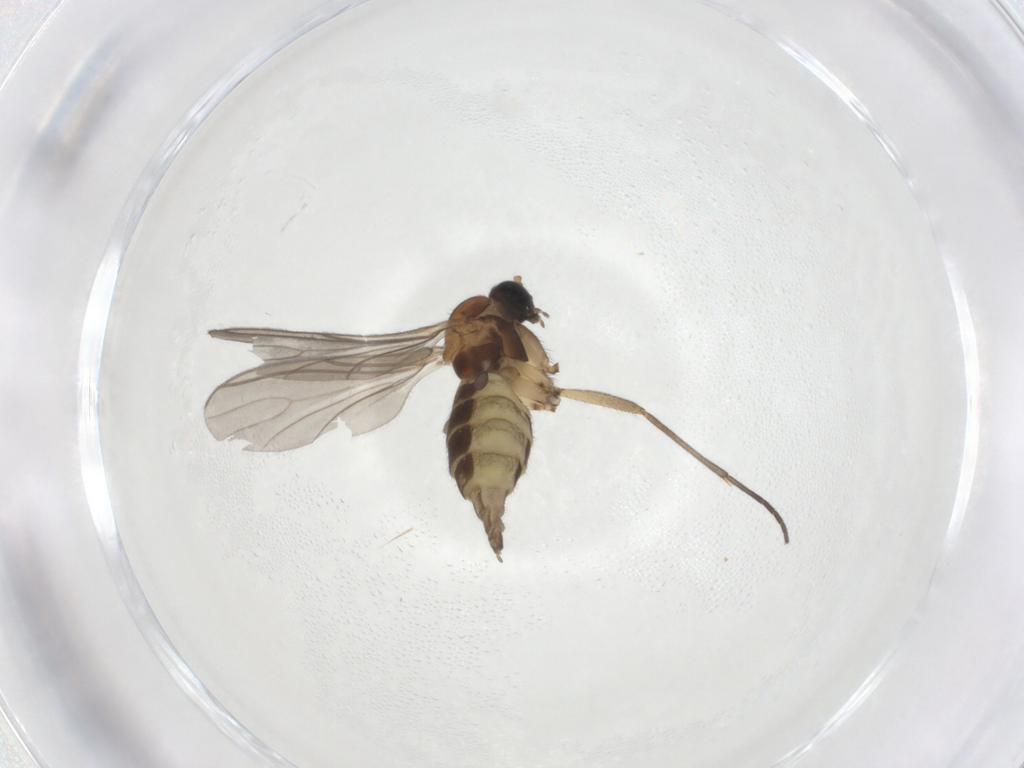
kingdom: Animalia
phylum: Arthropoda
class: Insecta
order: Diptera
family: Sciaridae
